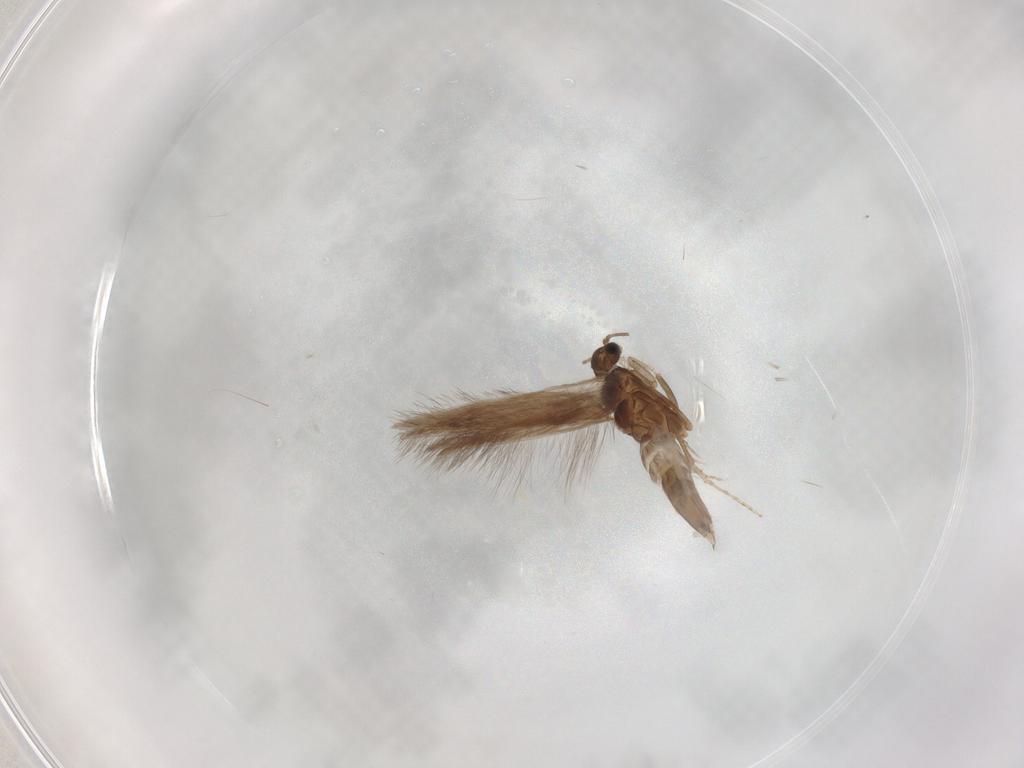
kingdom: Animalia
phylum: Arthropoda
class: Insecta
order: Trichoptera
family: Hydroptilidae
